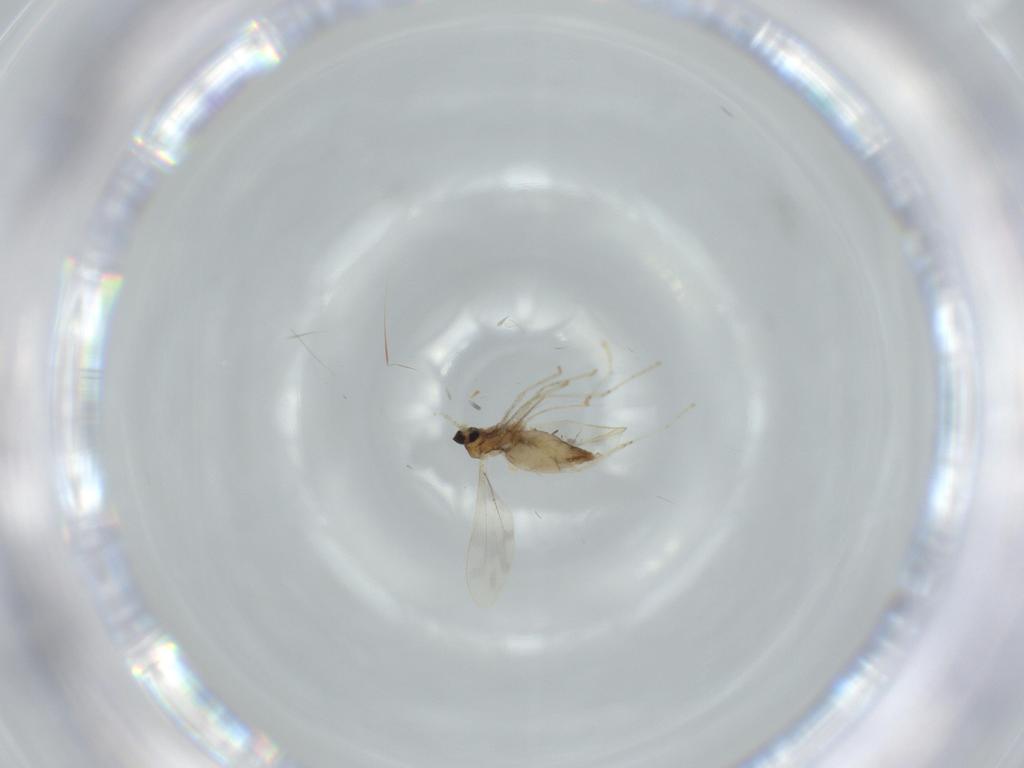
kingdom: Animalia
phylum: Arthropoda
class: Insecta
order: Diptera
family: Cecidomyiidae
